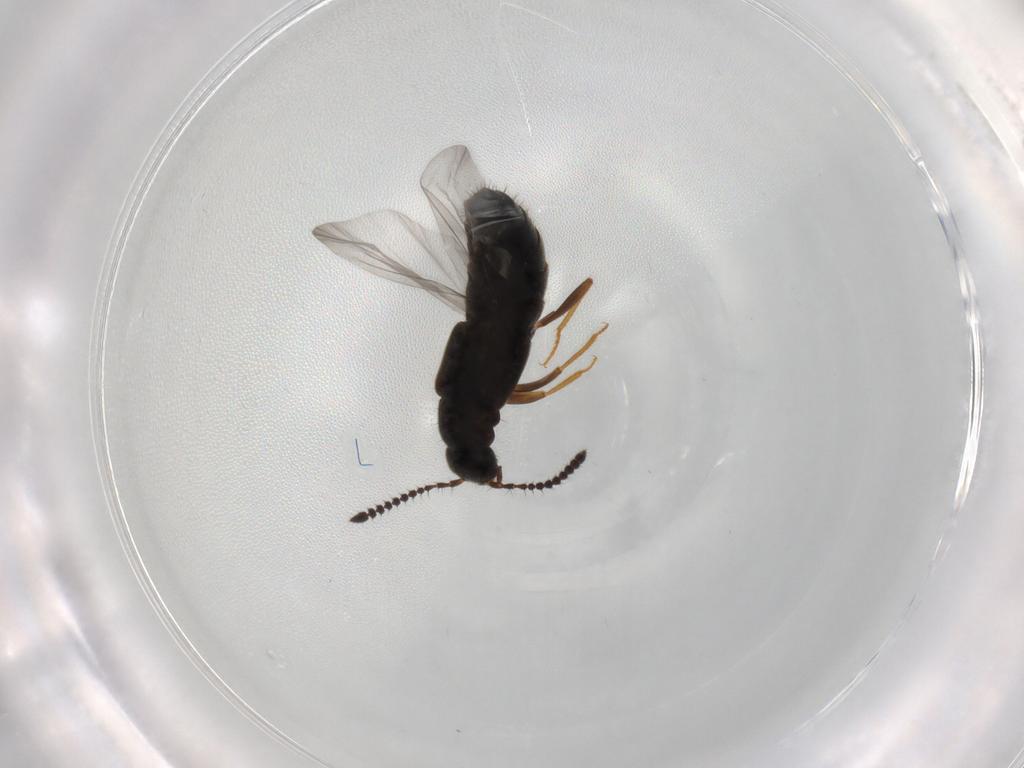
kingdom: Animalia
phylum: Arthropoda
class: Insecta
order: Coleoptera
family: Staphylinidae
